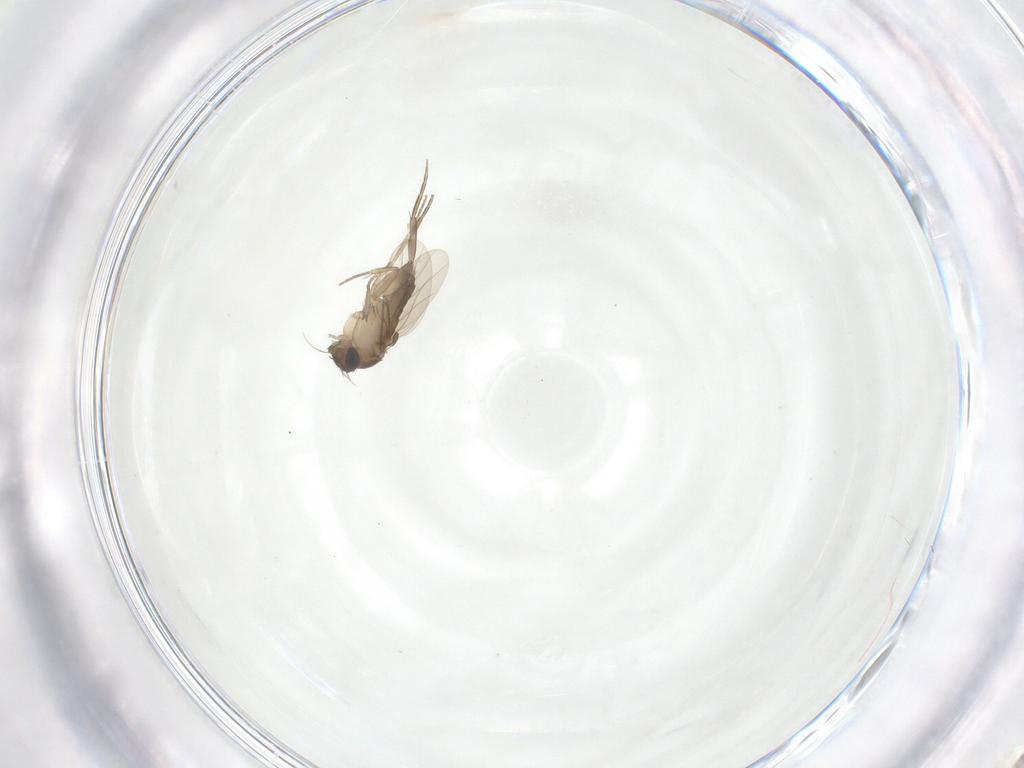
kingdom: Animalia
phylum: Arthropoda
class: Insecta
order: Diptera
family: Phoridae
